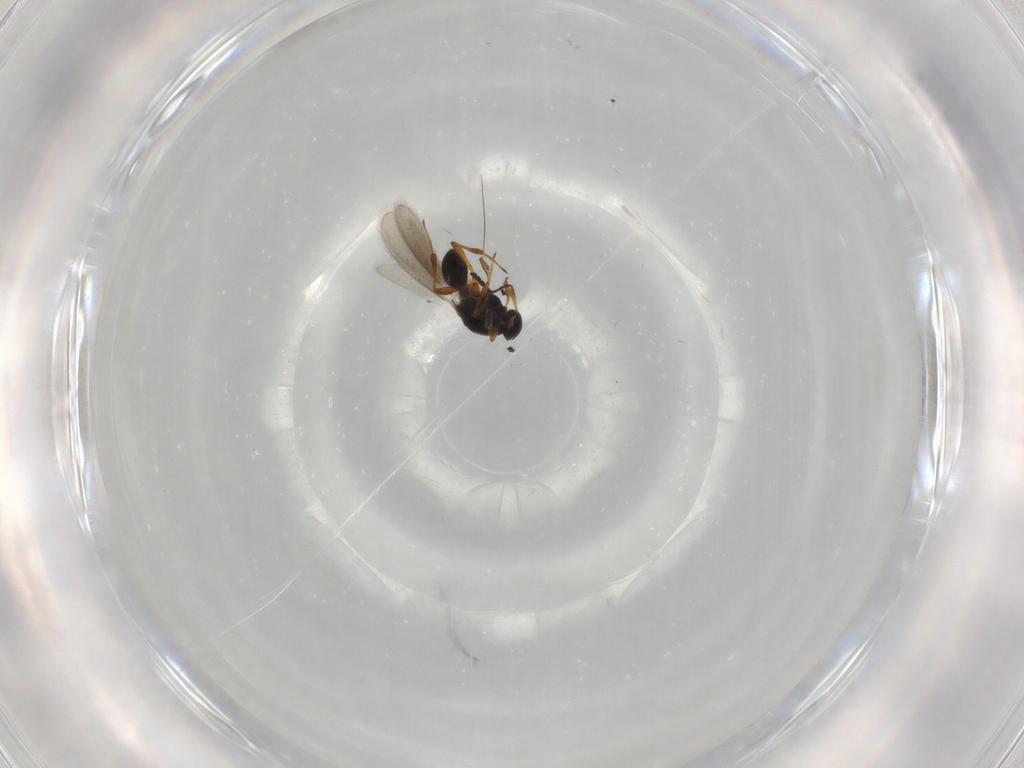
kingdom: Animalia
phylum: Arthropoda
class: Insecta
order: Hymenoptera
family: Platygastridae
